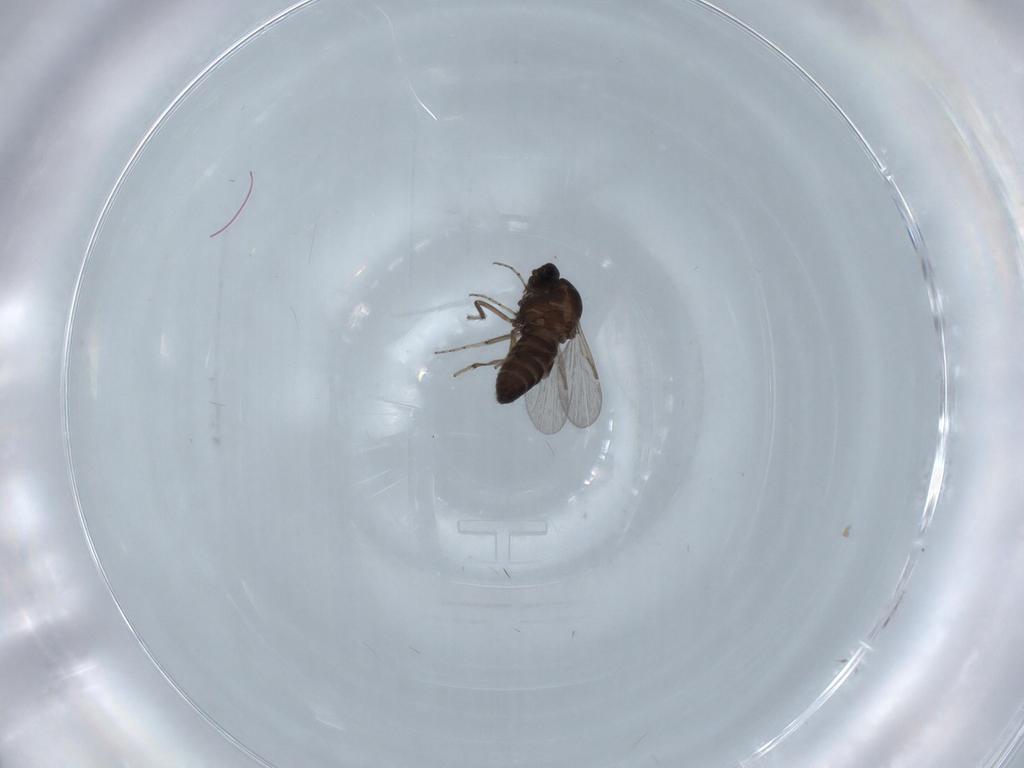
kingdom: Animalia
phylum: Arthropoda
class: Insecta
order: Diptera
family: Ceratopogonidae
